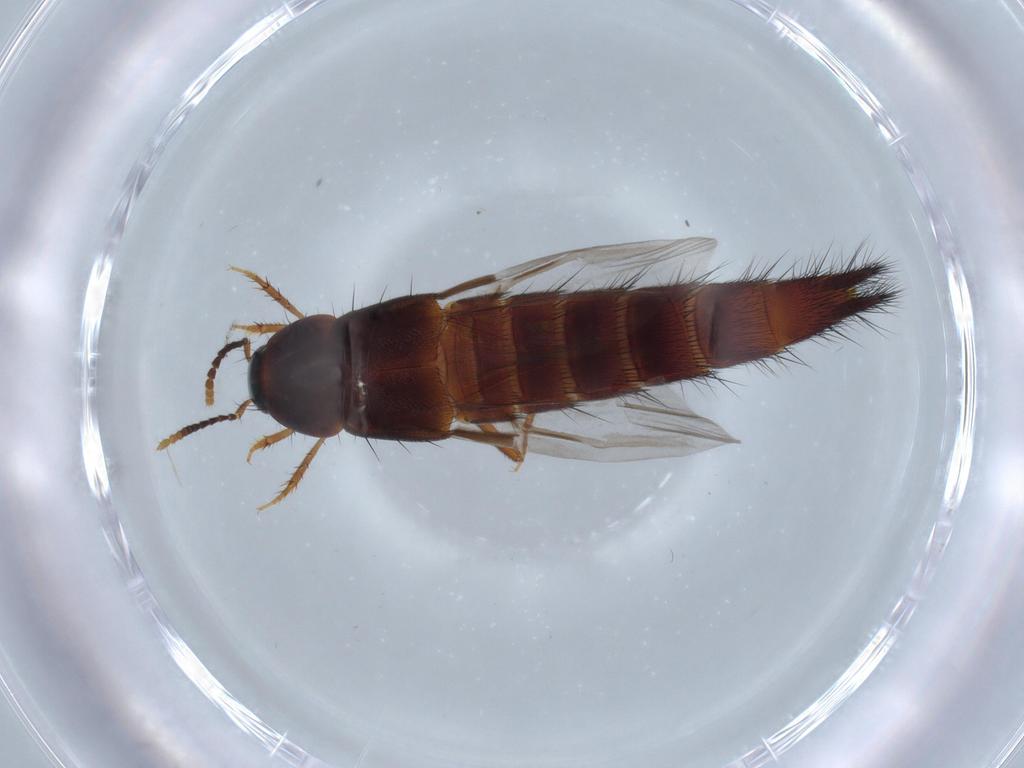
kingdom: Animalia
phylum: Arthropoda
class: Insecta
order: Coleoptera
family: Staphylinidae
